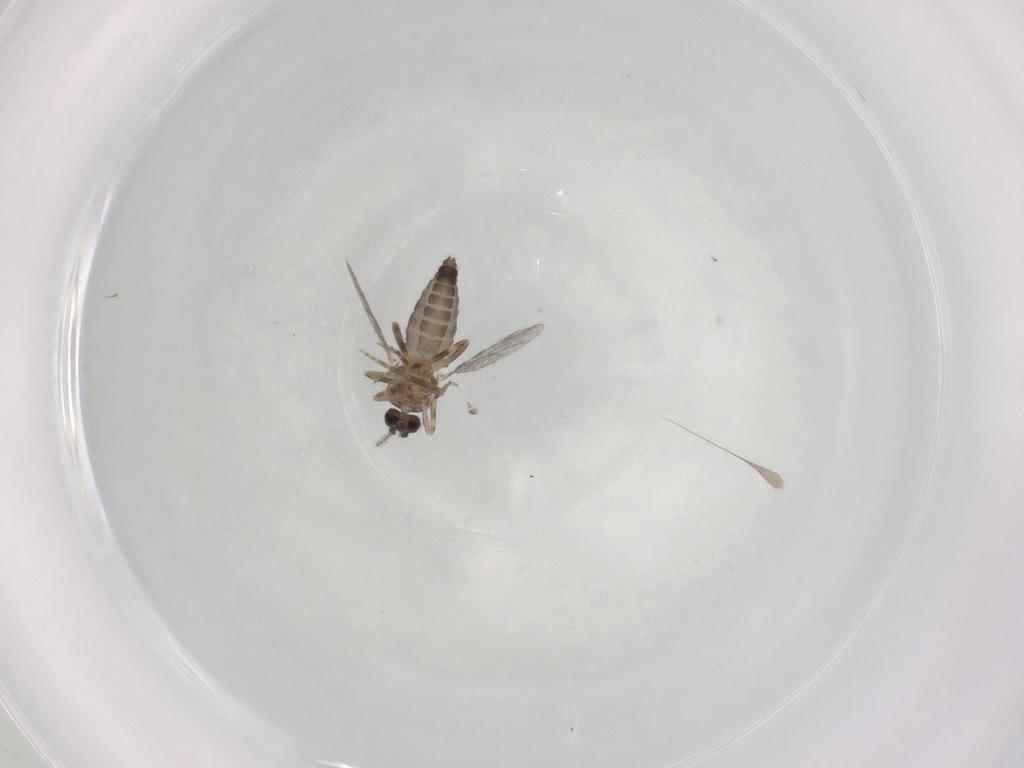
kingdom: Animalia
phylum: Arthropoda
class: Insecta
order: Diptera
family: Ceratopogonidae
